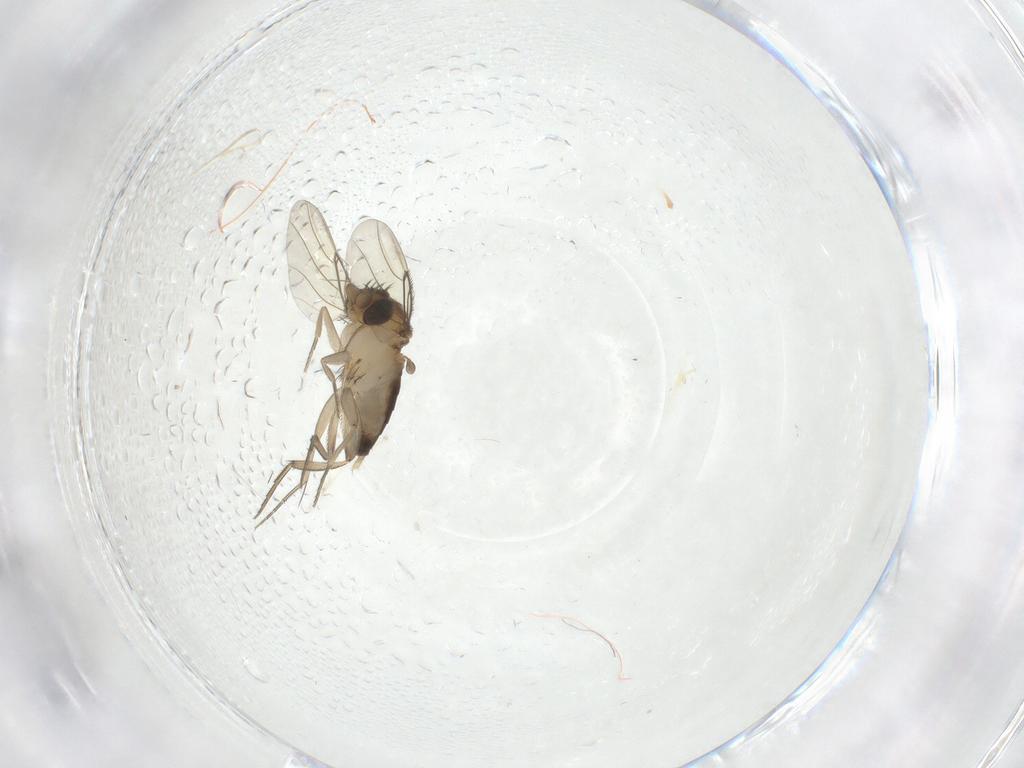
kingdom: Animalia
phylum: Arthropoda
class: Insecta
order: Diptera
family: Phoridae
